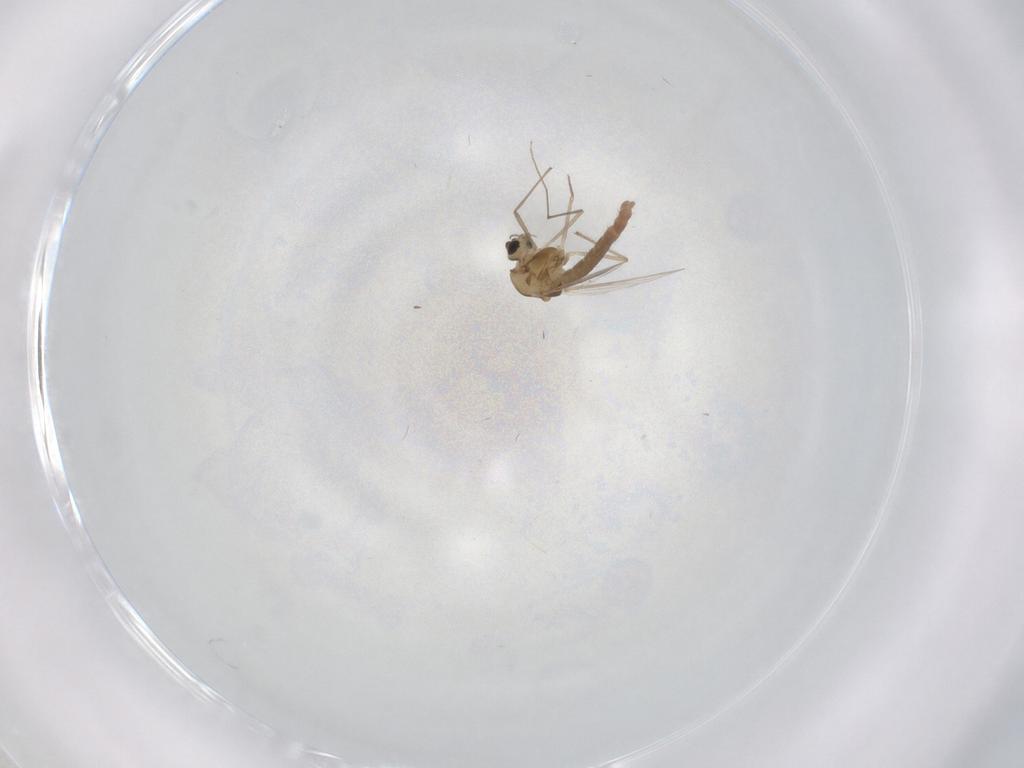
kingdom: Animalia
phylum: Arthropoda
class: Insecta
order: Diptera
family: Chironomidae
